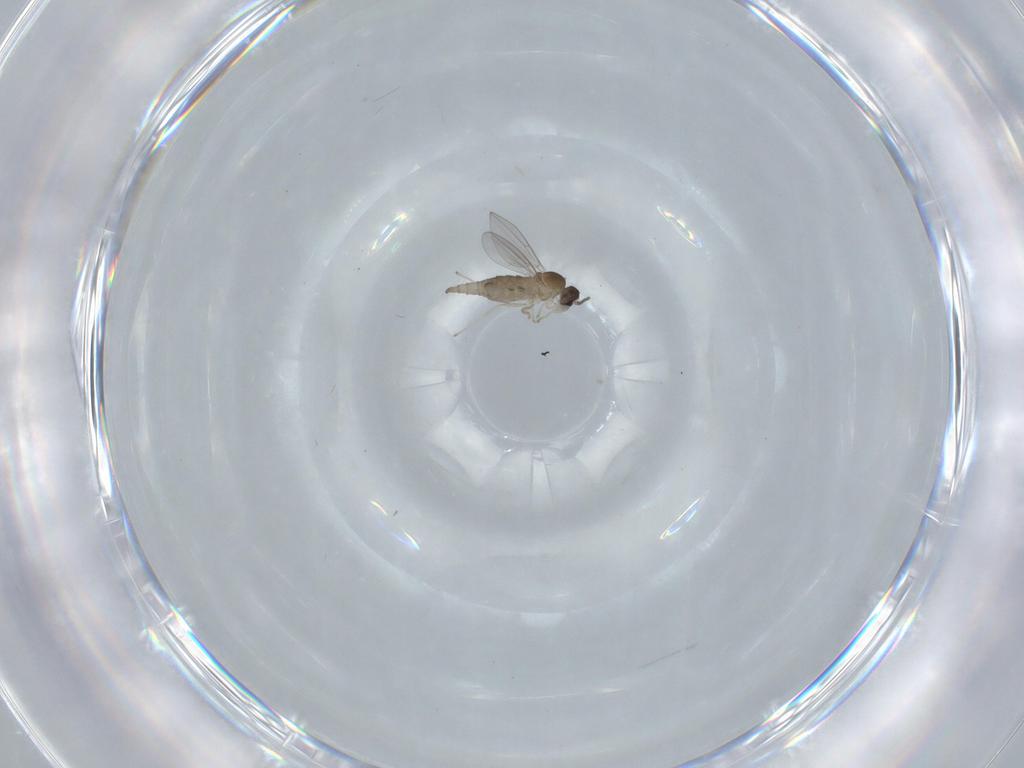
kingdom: Animalia
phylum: Arthropoda
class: Insecta
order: Diptera
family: Cecidomyiidae
